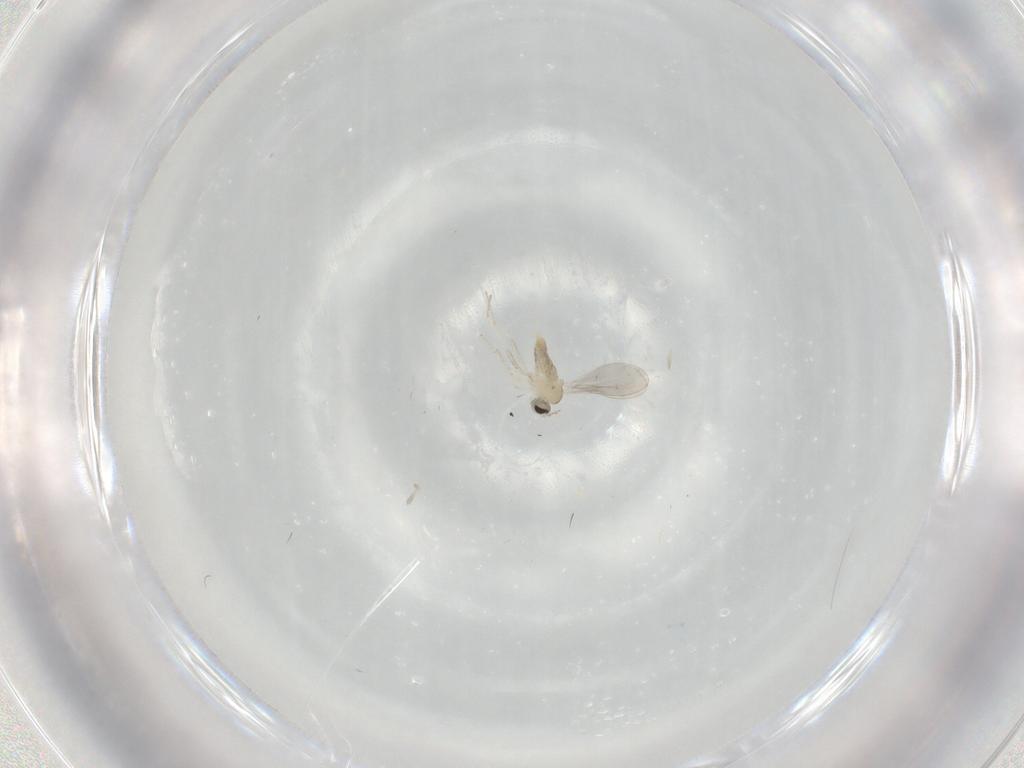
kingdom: Animalia
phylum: Arthropoda
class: Insecta
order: Diptera
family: Cecidomyiidae
